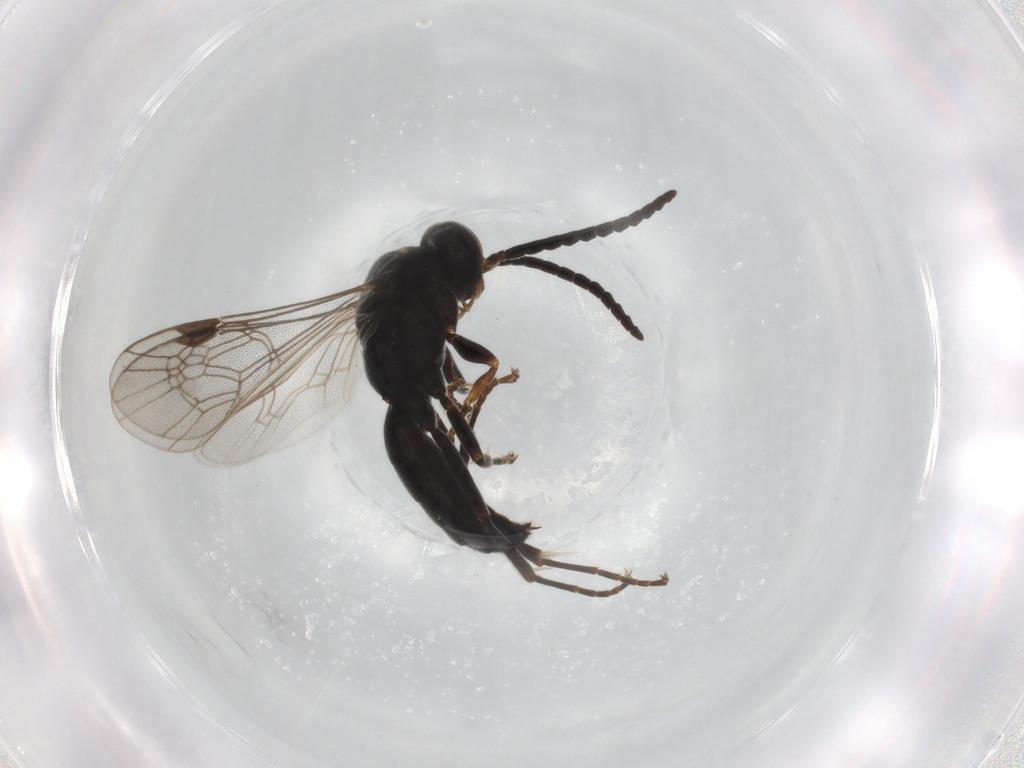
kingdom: Animalia
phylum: Arthropoda
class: Insecta
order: Hymenoptera
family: Pompilidae
